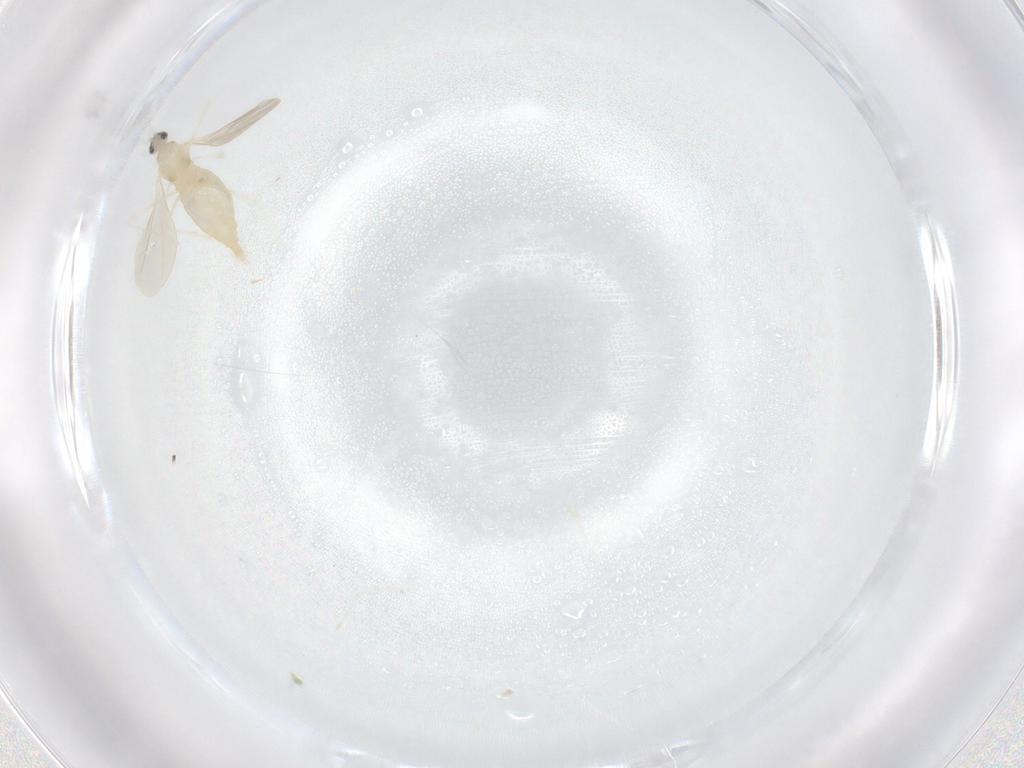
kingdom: Animalia
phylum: Arthropoda
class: Insecta
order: Diptera
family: Cecidomyiidae
